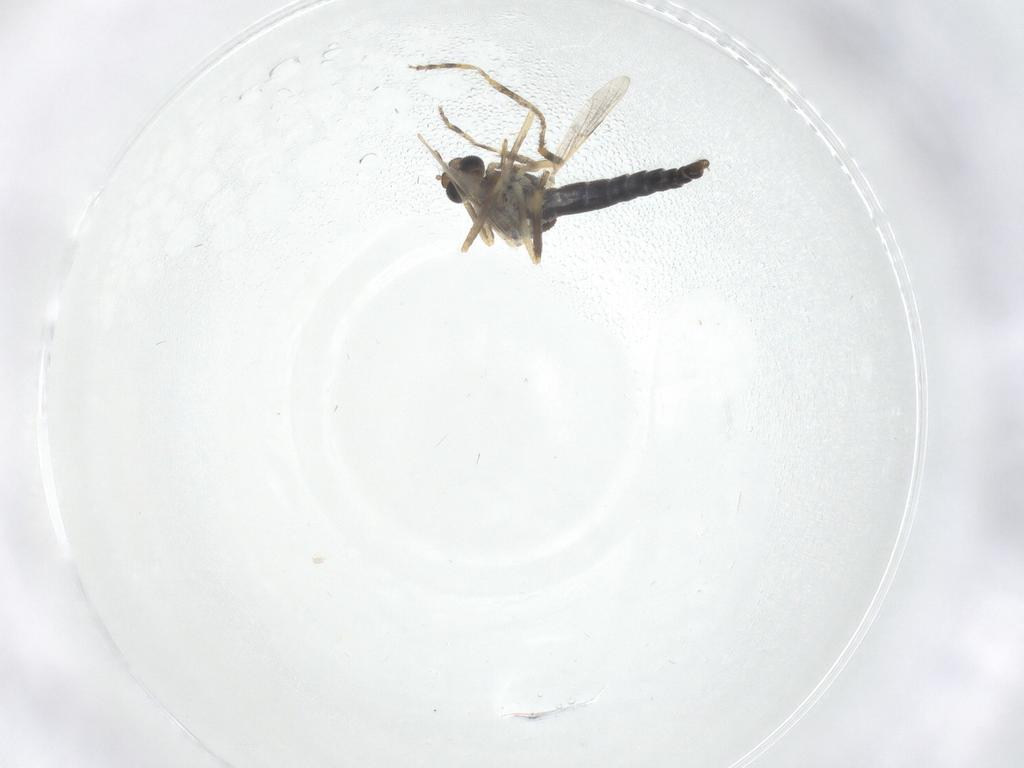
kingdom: Animalia
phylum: Arthropoda
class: Insecta
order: Diptera
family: Ceratopogonidae
